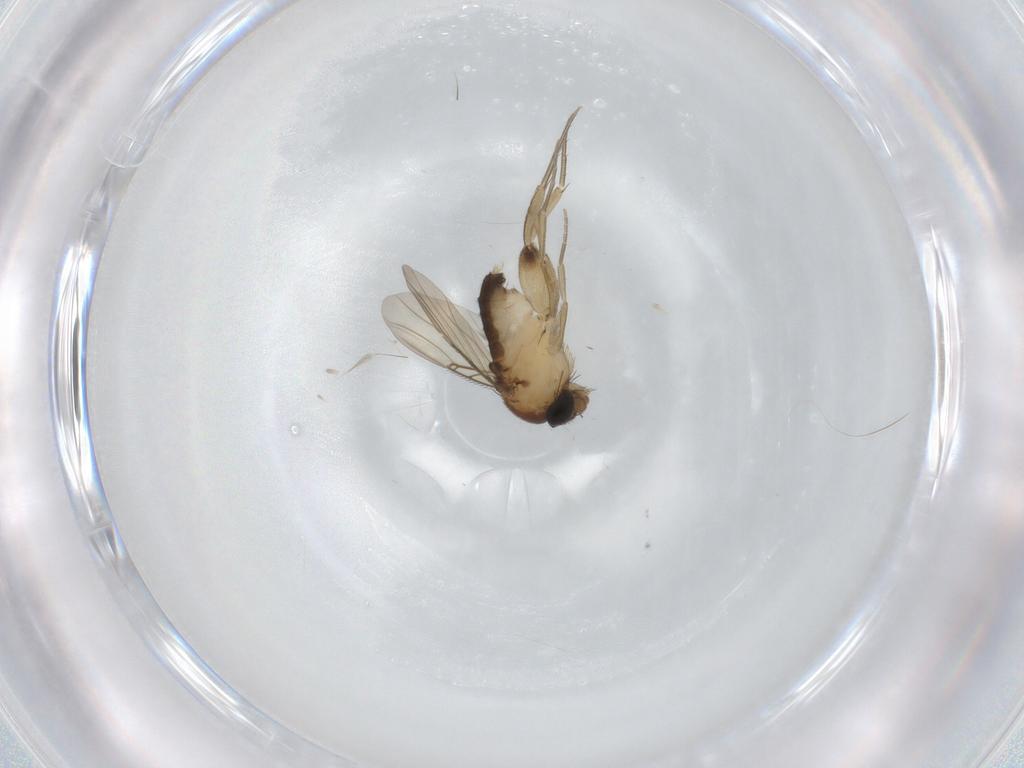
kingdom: Animalia
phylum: Arthropoda
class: Insecta
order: Diptera
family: Phoridae
